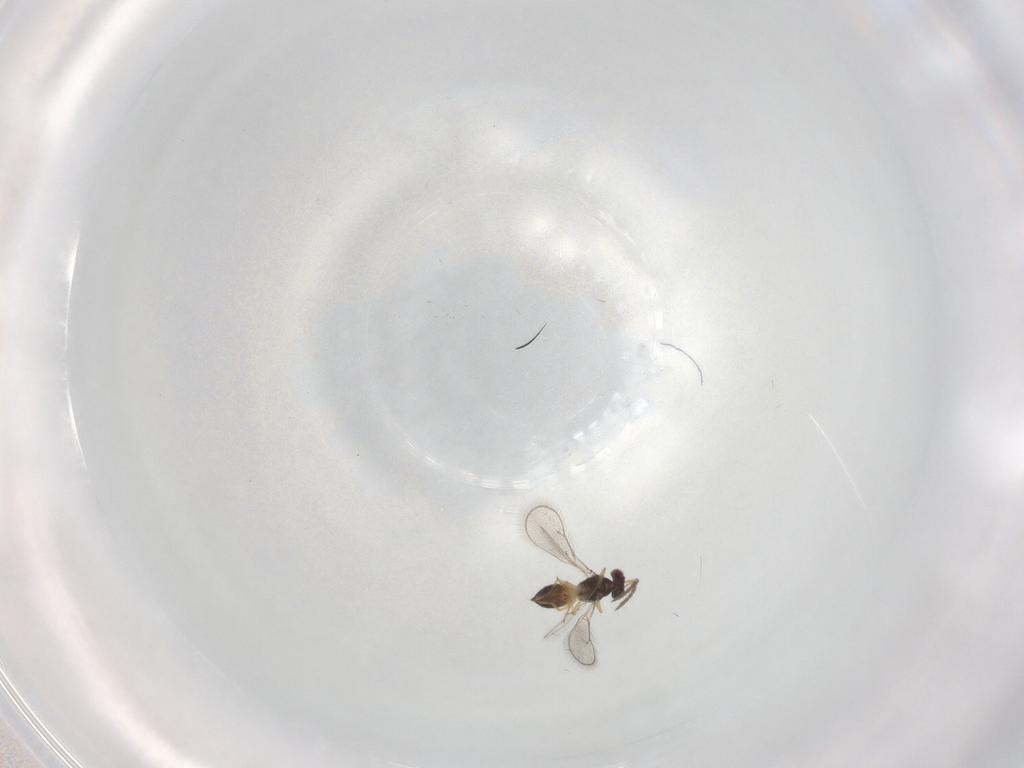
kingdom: Animalia
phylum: Arthropoda
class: Insecta
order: Hymenoptera
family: Eulophidae
